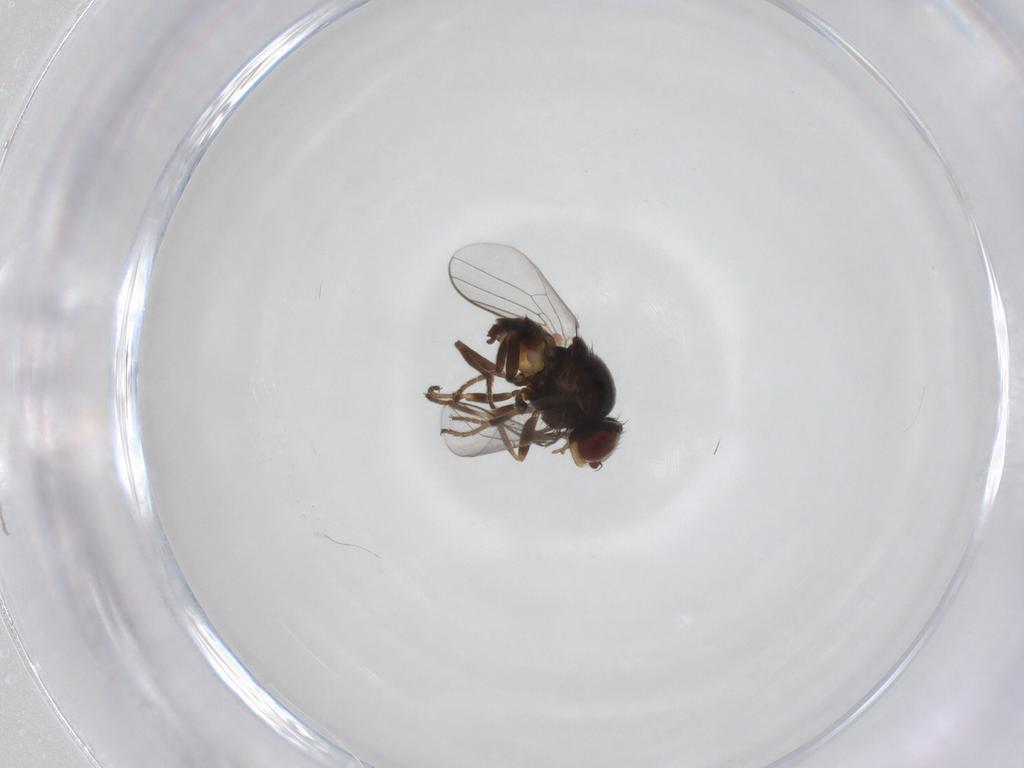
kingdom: Animalia
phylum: Arthropoda
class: Insecta
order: Diptera
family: Chloropidae
